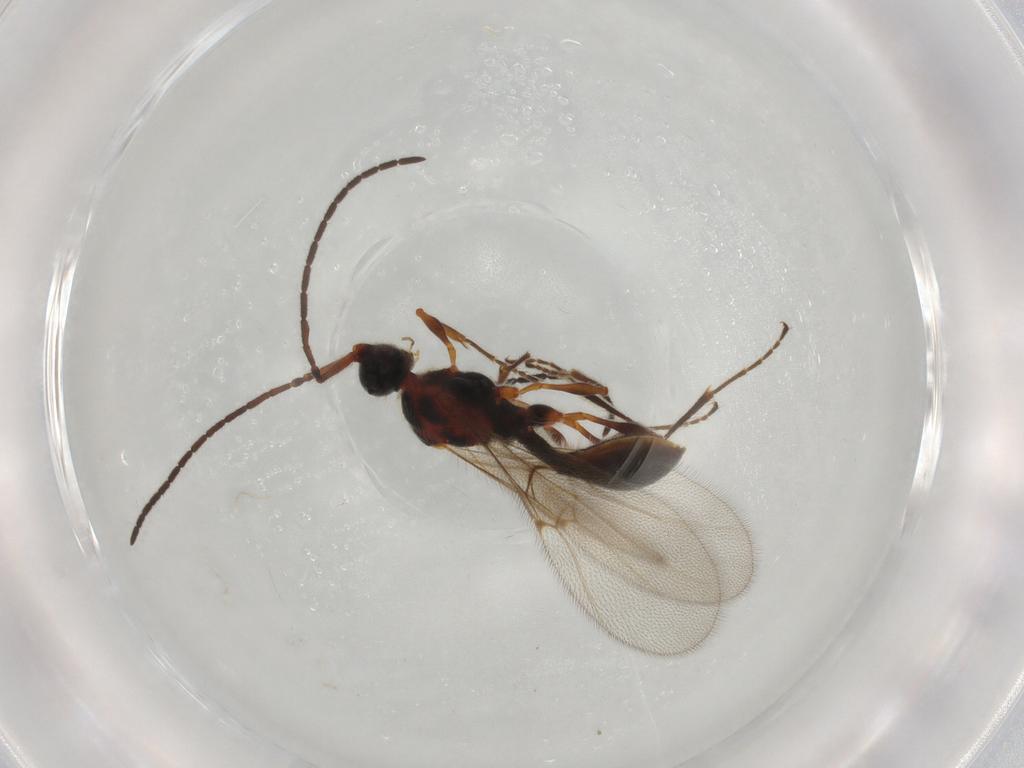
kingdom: Animalia
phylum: Arthropoda
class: Insecta
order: Hymenoptera
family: Diapriidae
